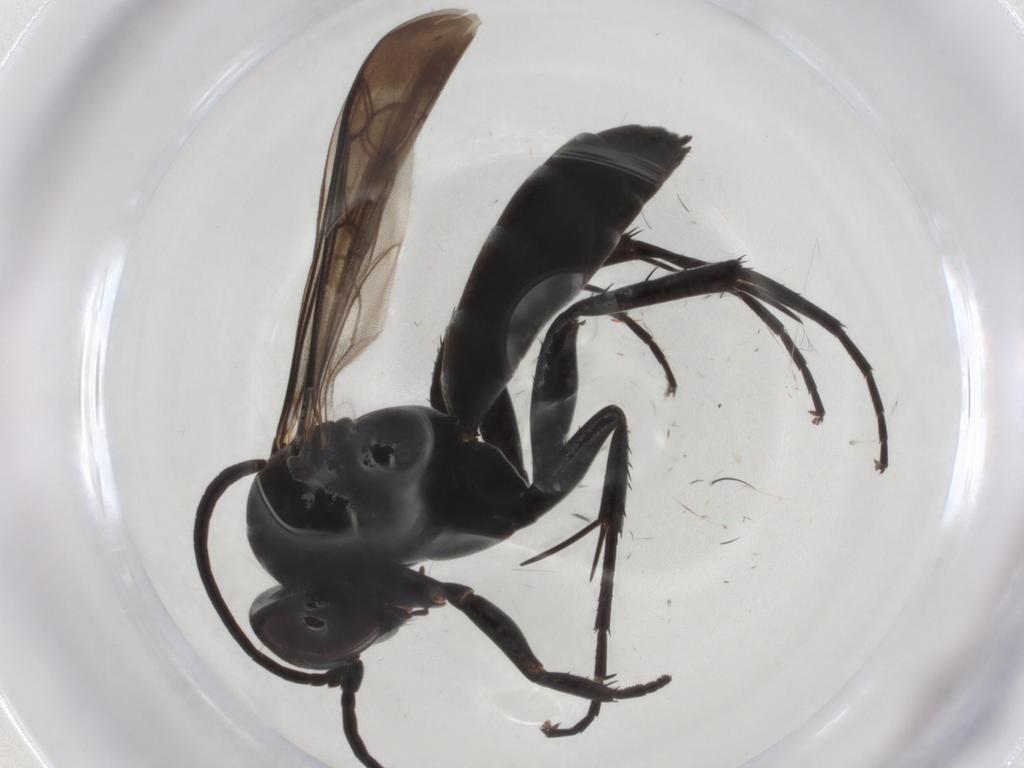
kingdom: Animalia
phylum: Arthropoda
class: Insecta
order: Hymenoptera
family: Pompilidae
